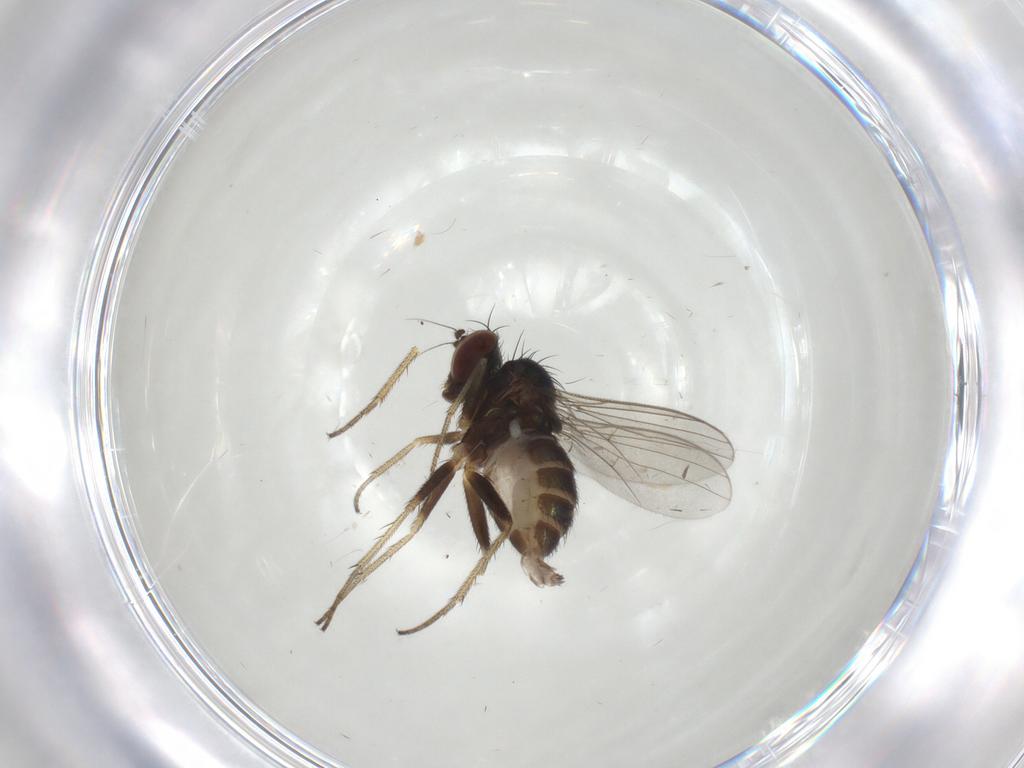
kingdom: Animalia
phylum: Arthropoda
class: Insecta
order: Diptera
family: Dolichopodidae
